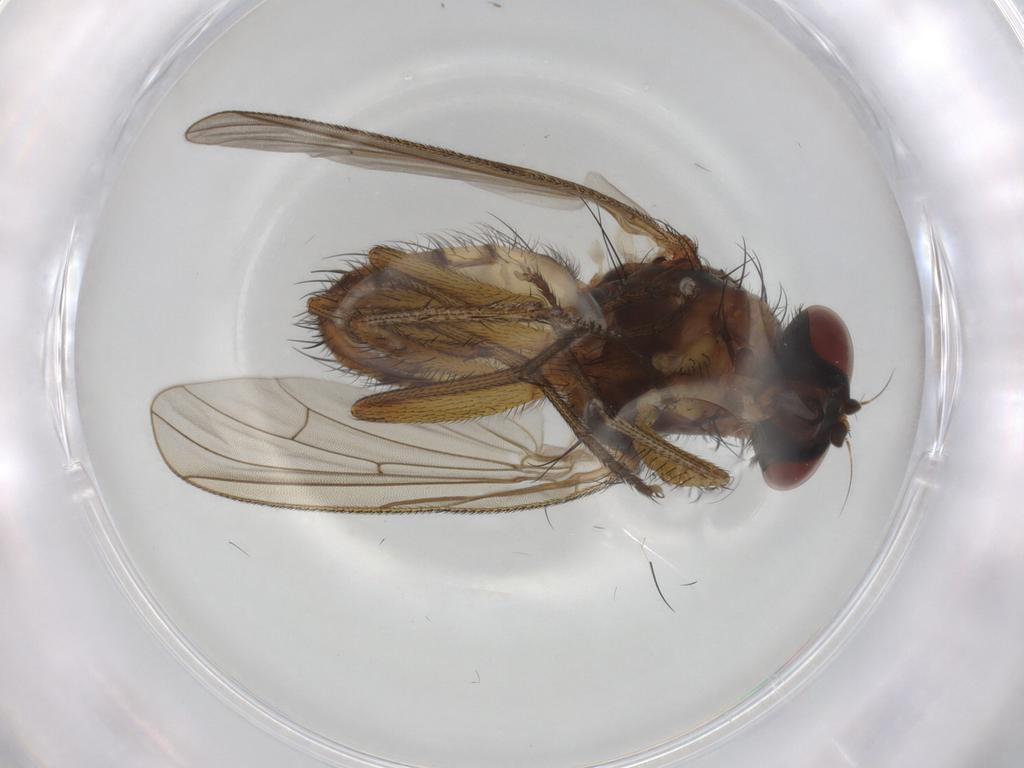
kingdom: Animalia
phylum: Arthropoda
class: Insecta
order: Diptera
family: Anthomyiidae
